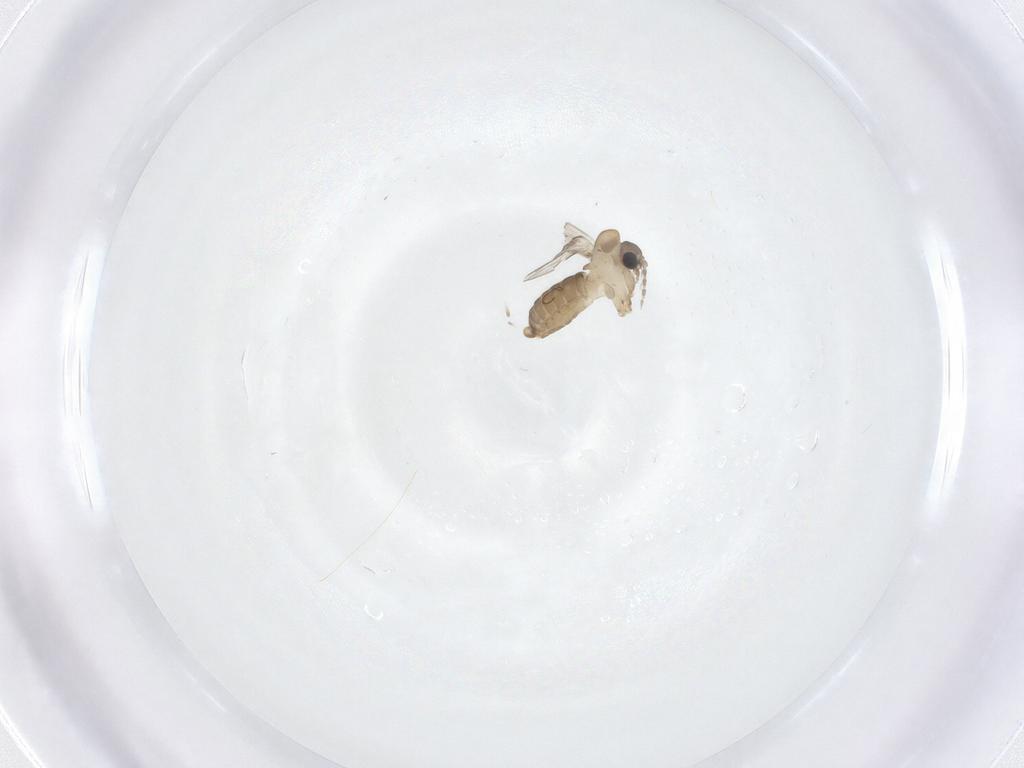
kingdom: Animalia
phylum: Arthropoda
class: Insecta
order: Diptera
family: Psychodidae
